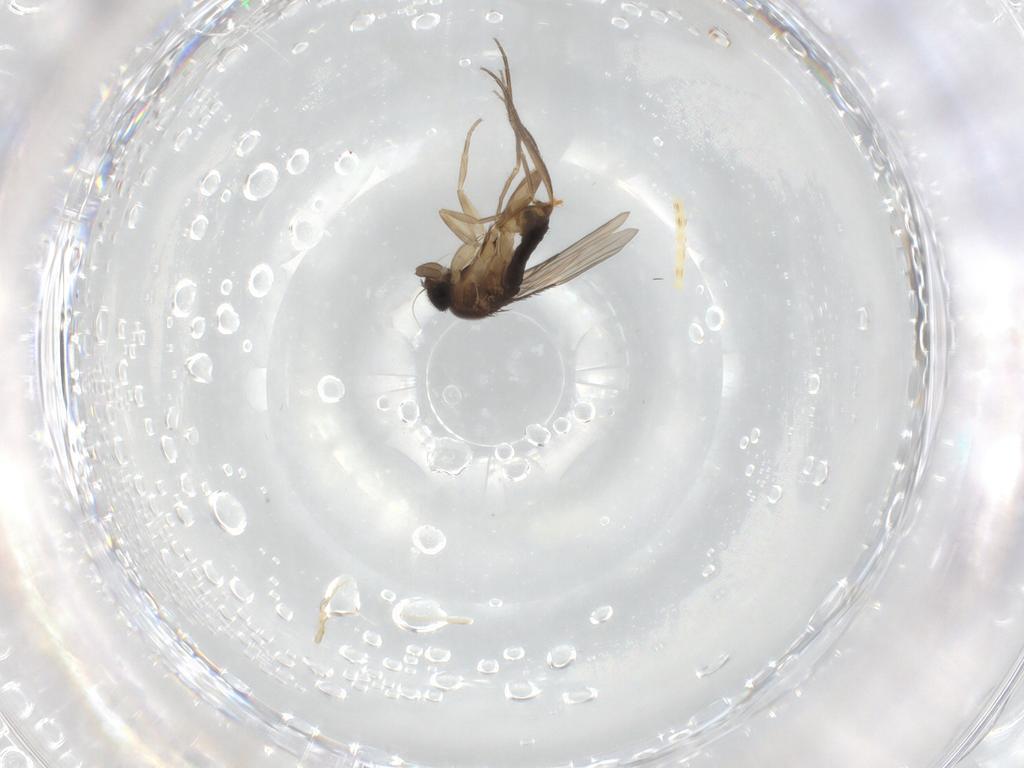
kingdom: Animalia
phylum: Arthropoda
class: Insecta
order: Diptera
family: Phoridae
